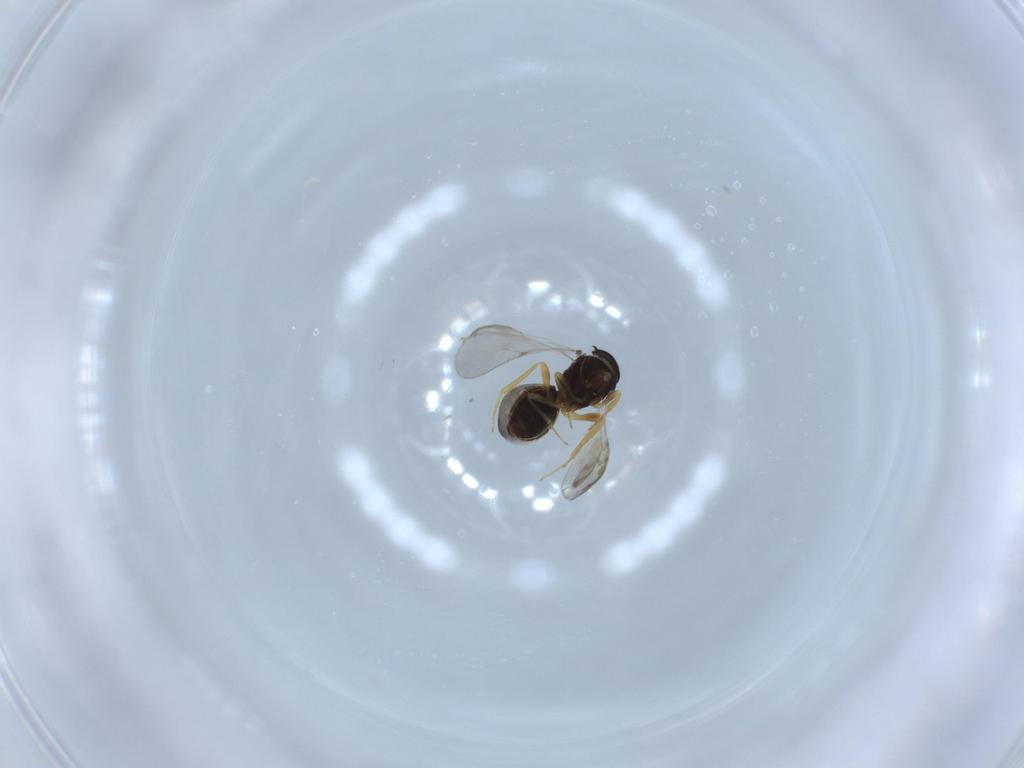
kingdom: Animalia
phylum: Arthropoda
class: Insecta
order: Hymenoptera
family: Scelionidae
